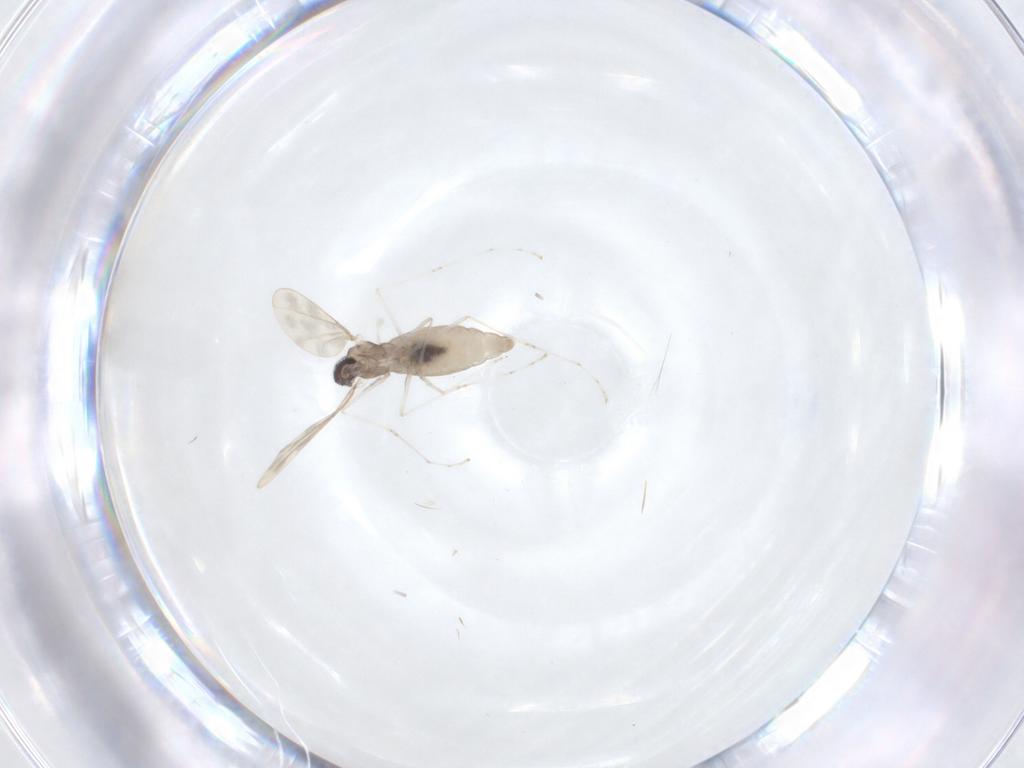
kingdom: Animalia
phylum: Arthropoda
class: Insecta
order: Diptera
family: Cecidomyiidae
